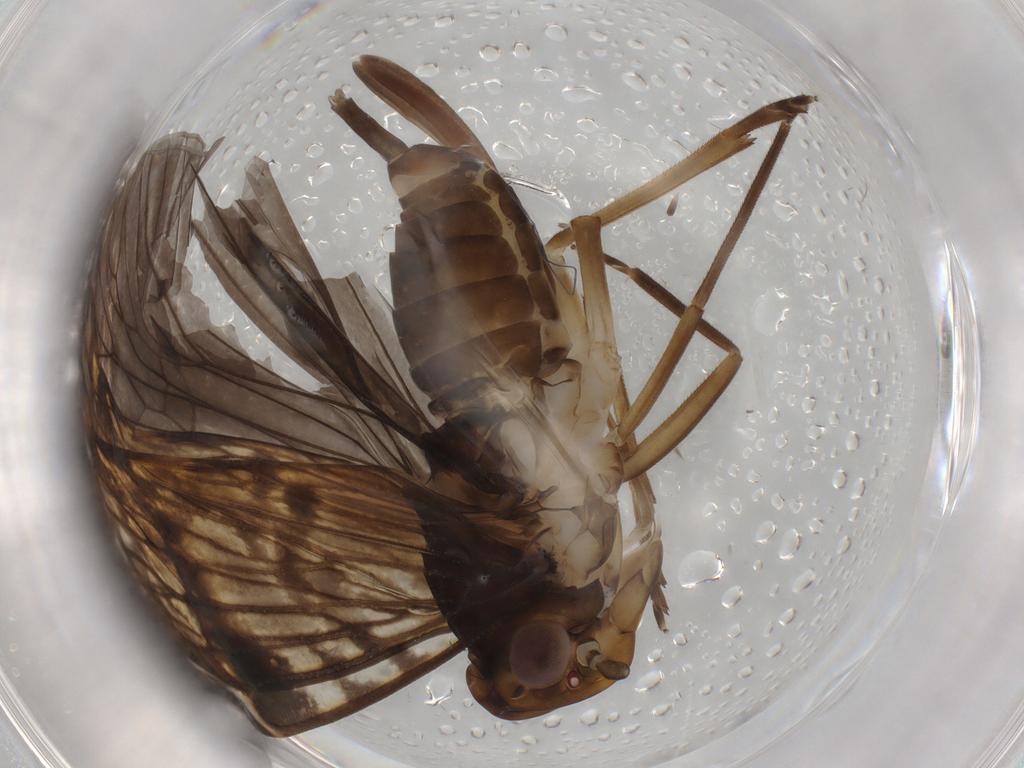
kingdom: Animalia
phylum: Arthropoda
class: Insecta
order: Hemiptera
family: Cixiidae
